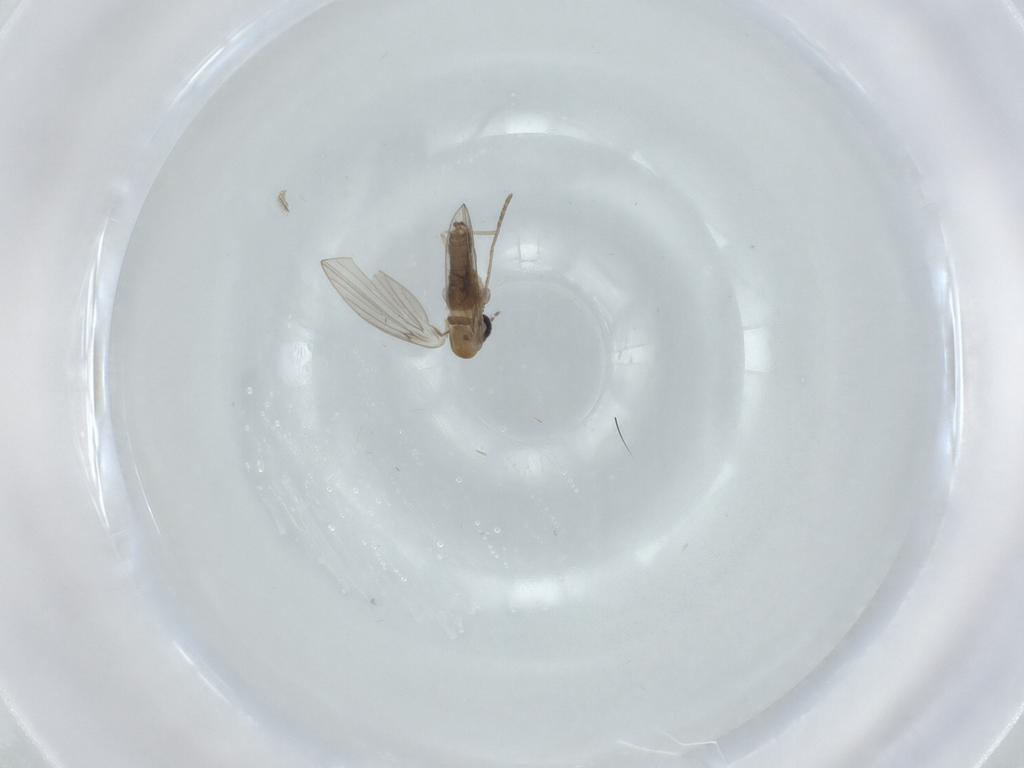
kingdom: Animalia
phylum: Arthropoda
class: Insecta
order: Diptera
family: Psychodidae
